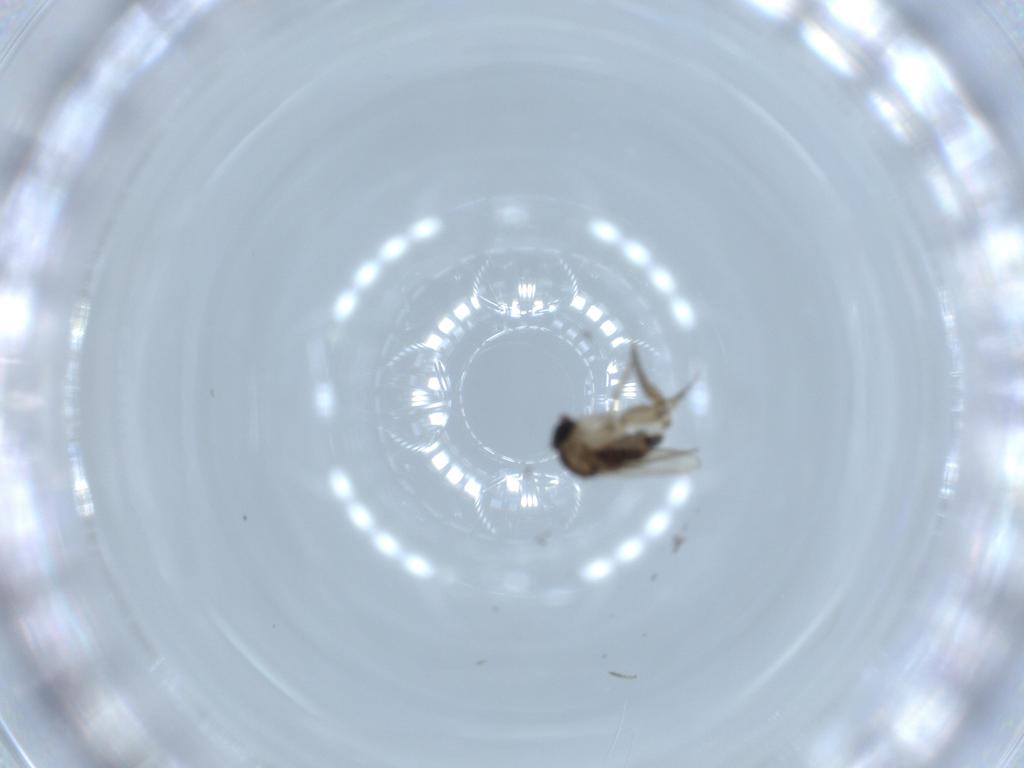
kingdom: Animalia
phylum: Arthropoda
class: Insecta
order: Diptera
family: Phoridae
